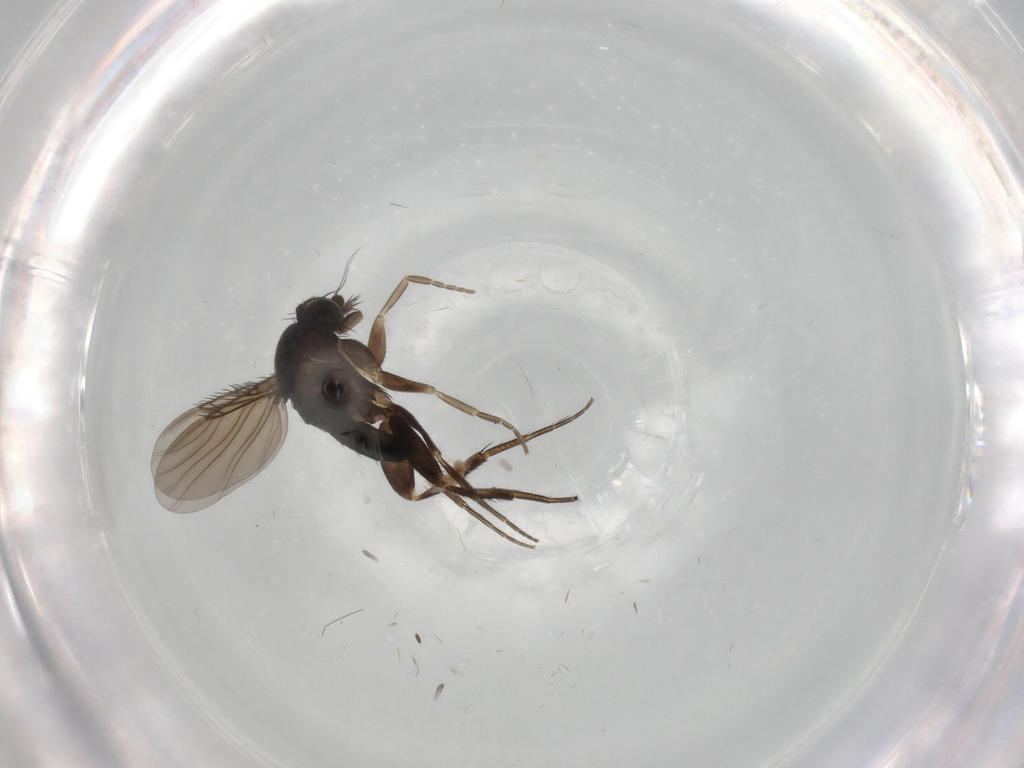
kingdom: Animalia
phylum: Arthropoda
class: Insecta
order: Diptera
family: Phoridae
